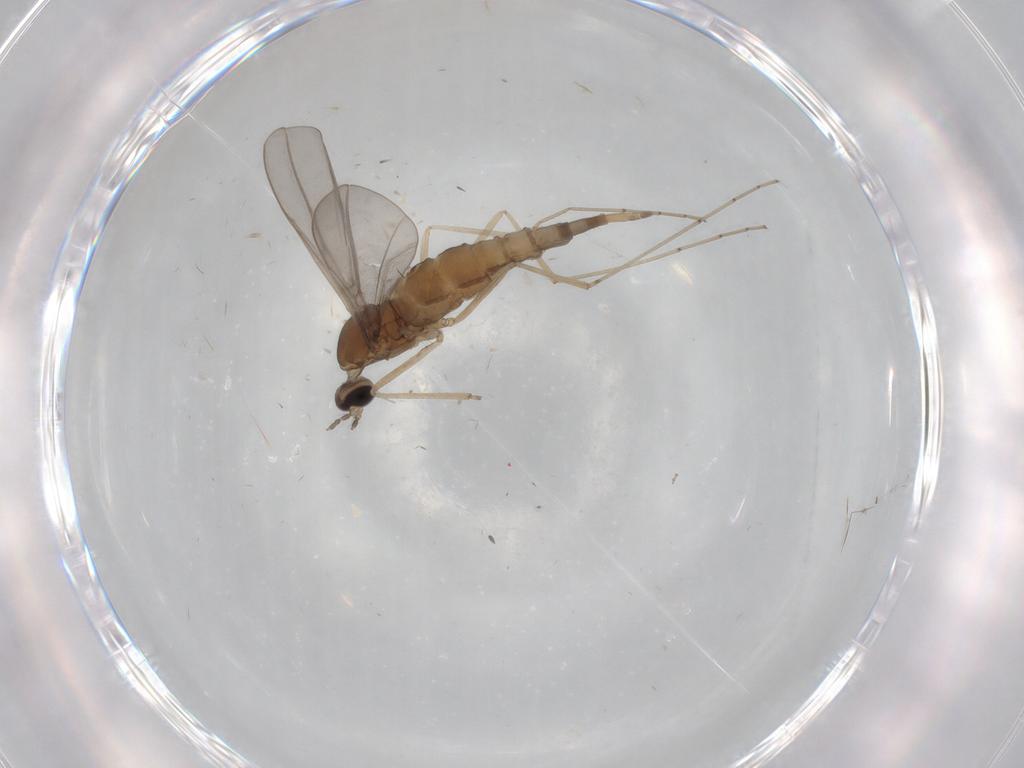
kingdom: Animalia
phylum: Arthropoda
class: Insecta
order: Diptera
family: Cecidomyiidae
